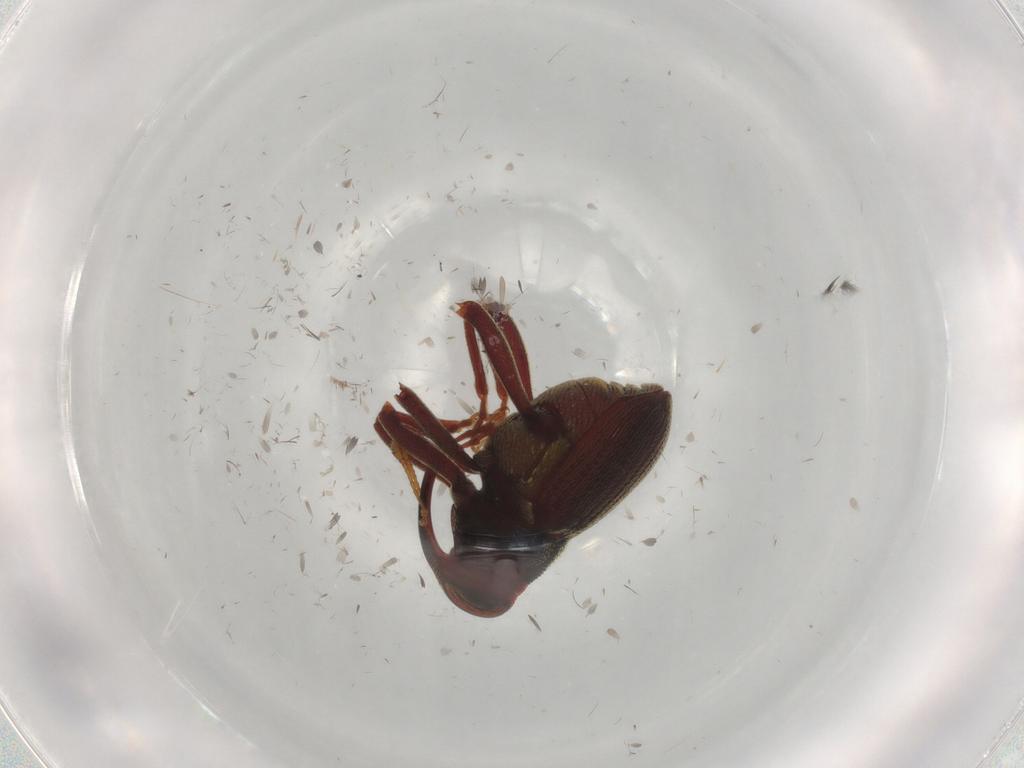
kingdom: Animalia
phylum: Arthropoda
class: Insecta
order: Coleoptera
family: Curculionidae
